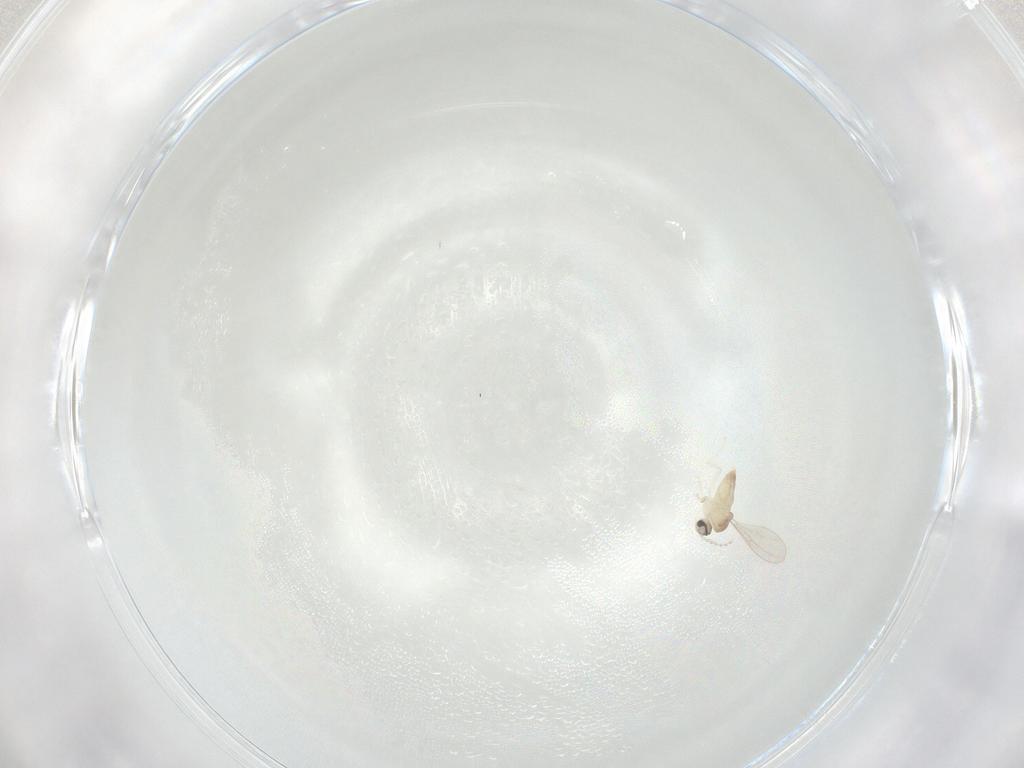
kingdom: Animalia
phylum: Arthropoda
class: Insecta
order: Diptera
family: Cecidomyiidae
